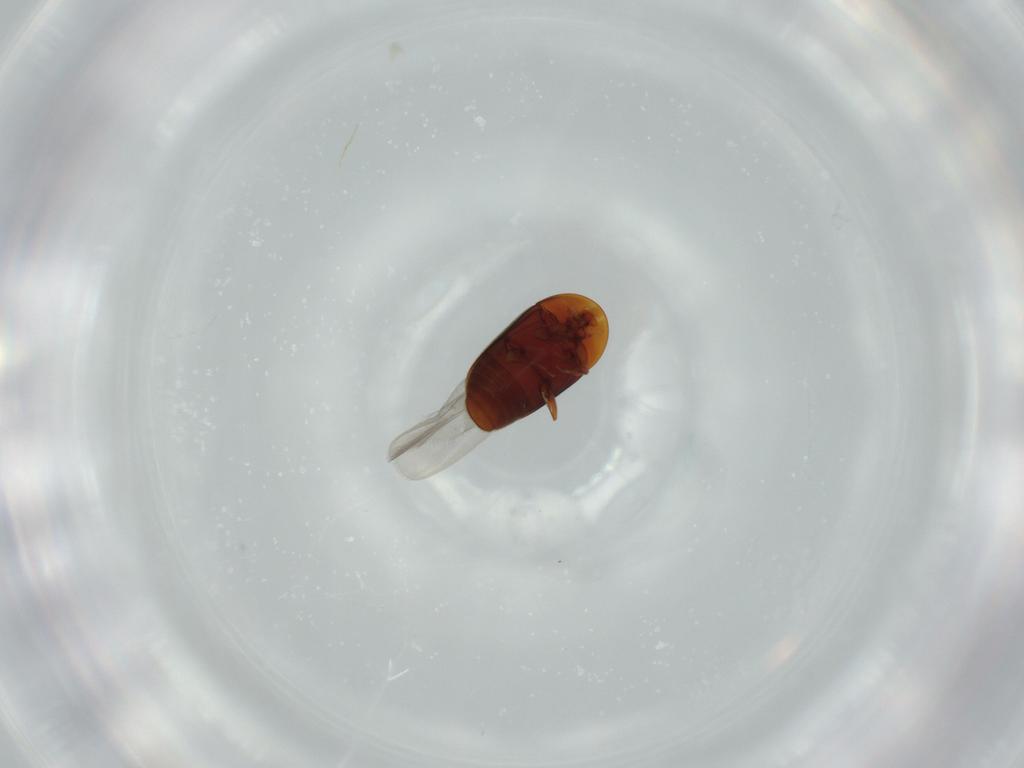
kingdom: Animalia
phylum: Arthropoda
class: Insecta
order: Coleoptera
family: Corylophidae
